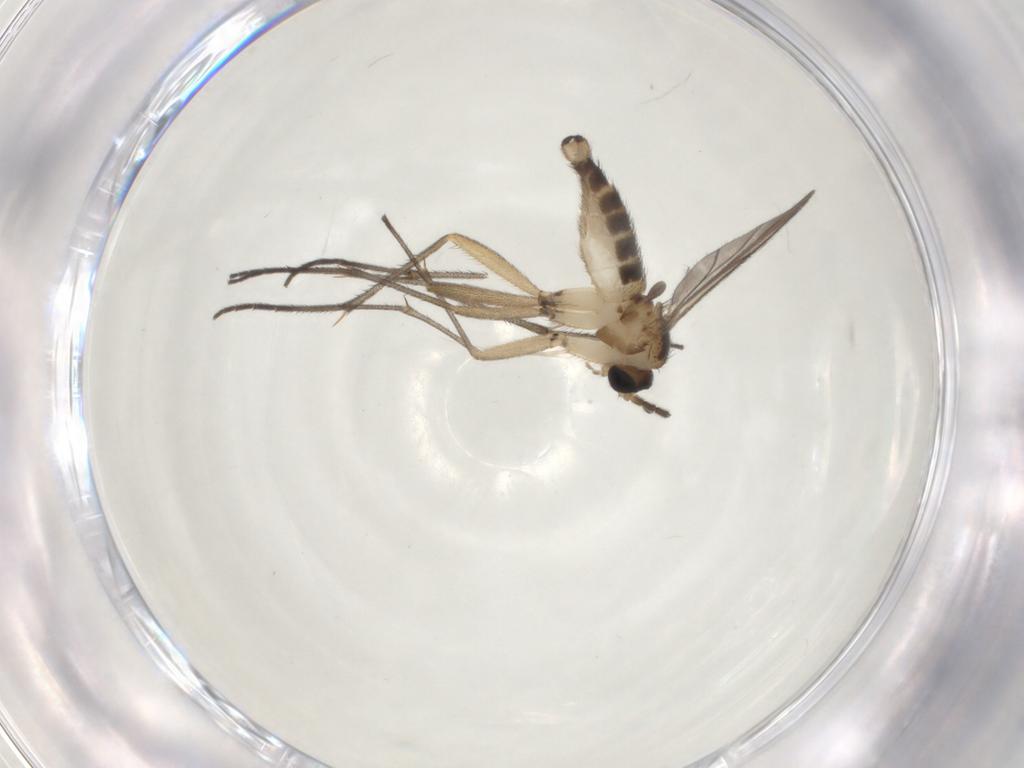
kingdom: Animalia
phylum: Arthropoda
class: Insecta
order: Diptera
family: Sciaridae
